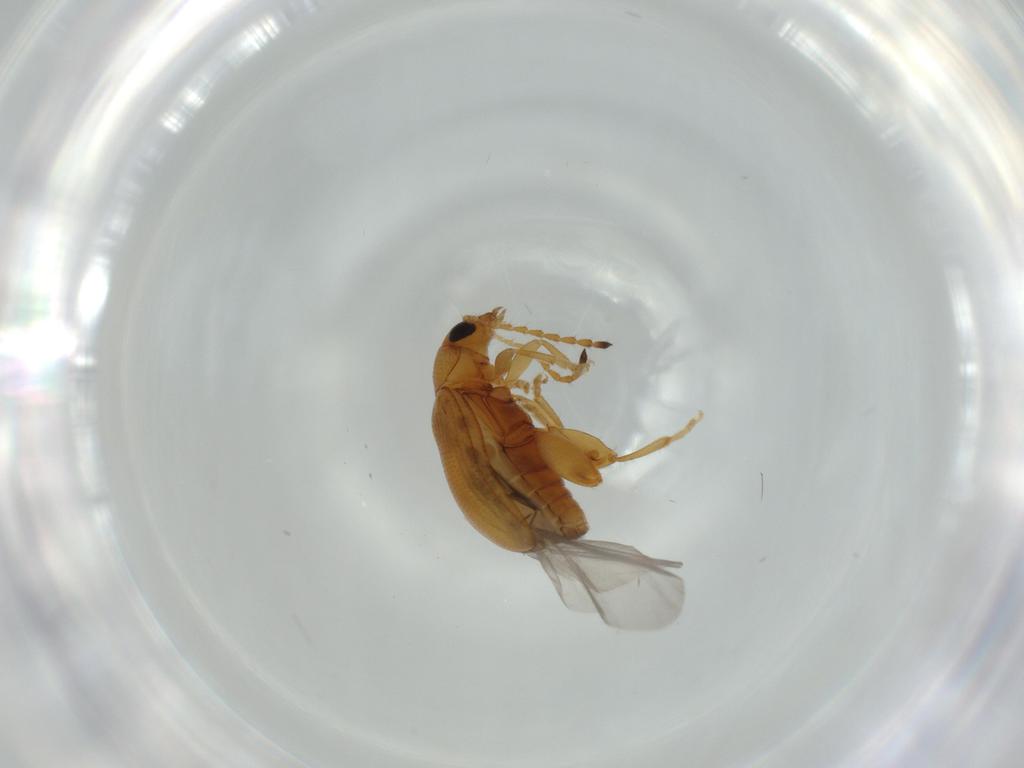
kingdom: Animalia
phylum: Arthropoda
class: Insecta
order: Coleoptera
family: Chrysomelidae
